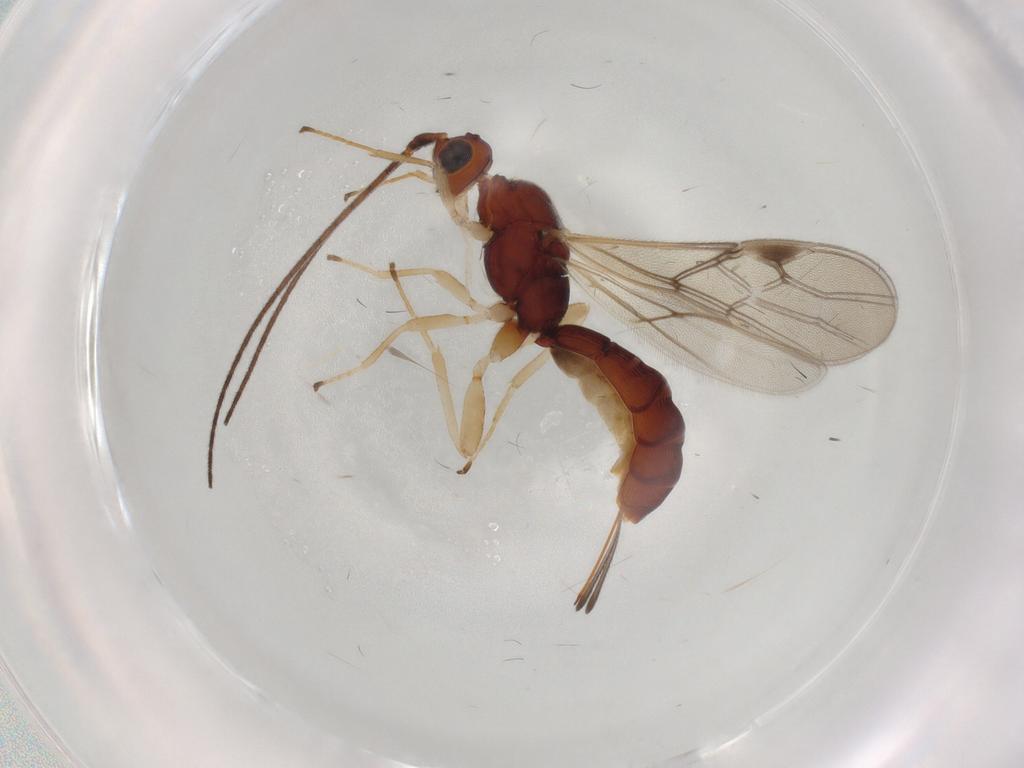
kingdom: Animalia
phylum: Arthropoda
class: Insecta
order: Hymenoptera
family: Braconidae
